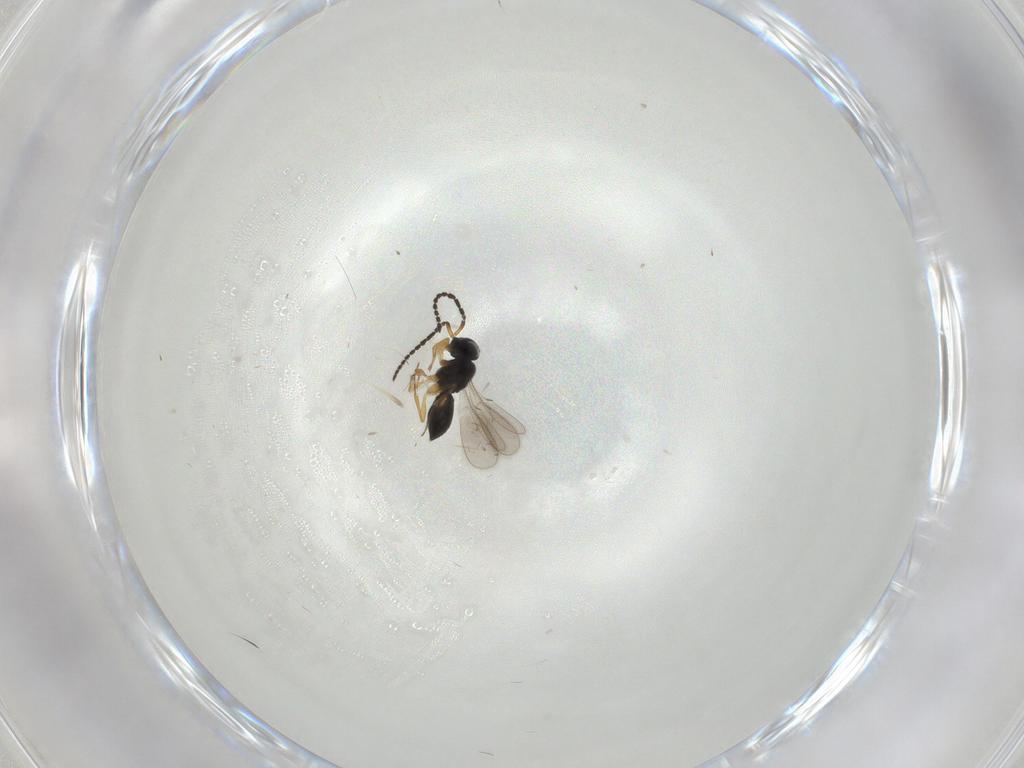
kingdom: Animalia
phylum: Arthropoda
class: Insecta
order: Hymenoptera
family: Scelionidae
